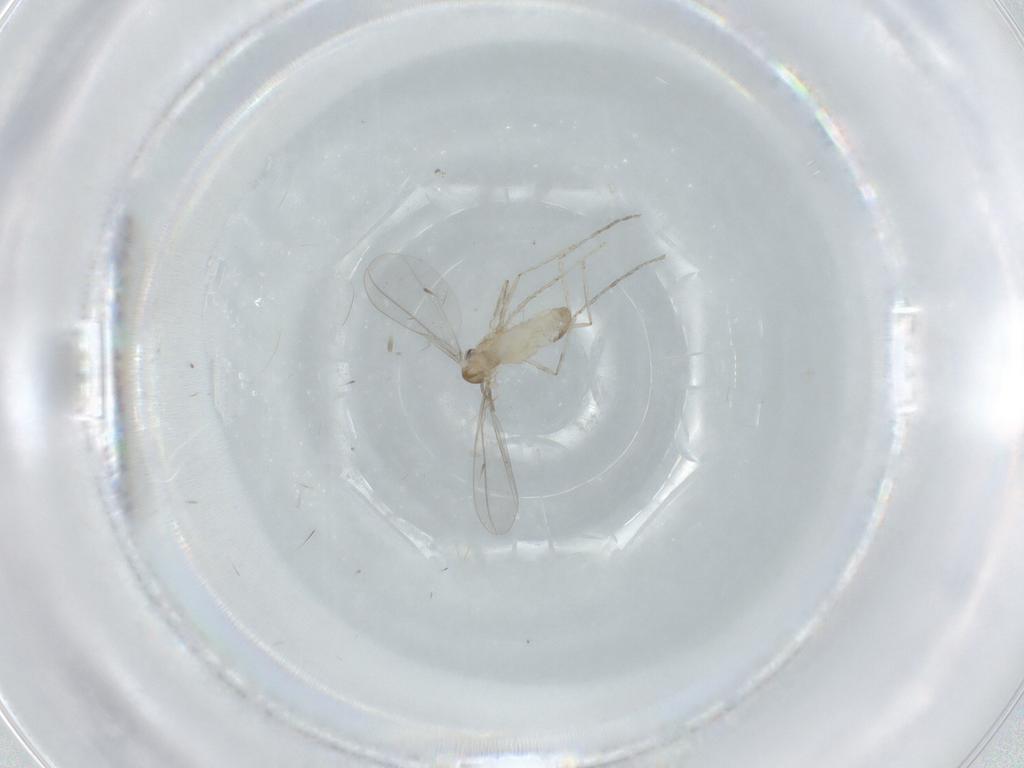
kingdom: Animalia
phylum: Arthropoda
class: Insecta
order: Diptera
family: Cecidomyiidae
